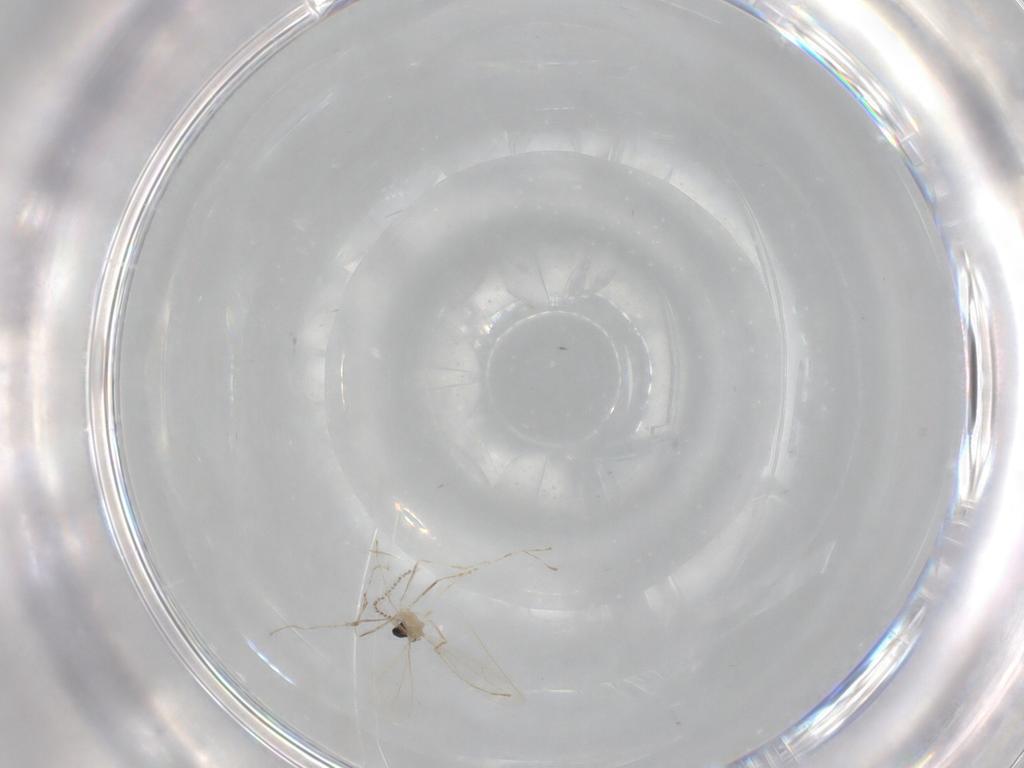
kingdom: Animalia
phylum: Arthropoda
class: Insecta
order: Diptera
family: Cecidomyiidae
